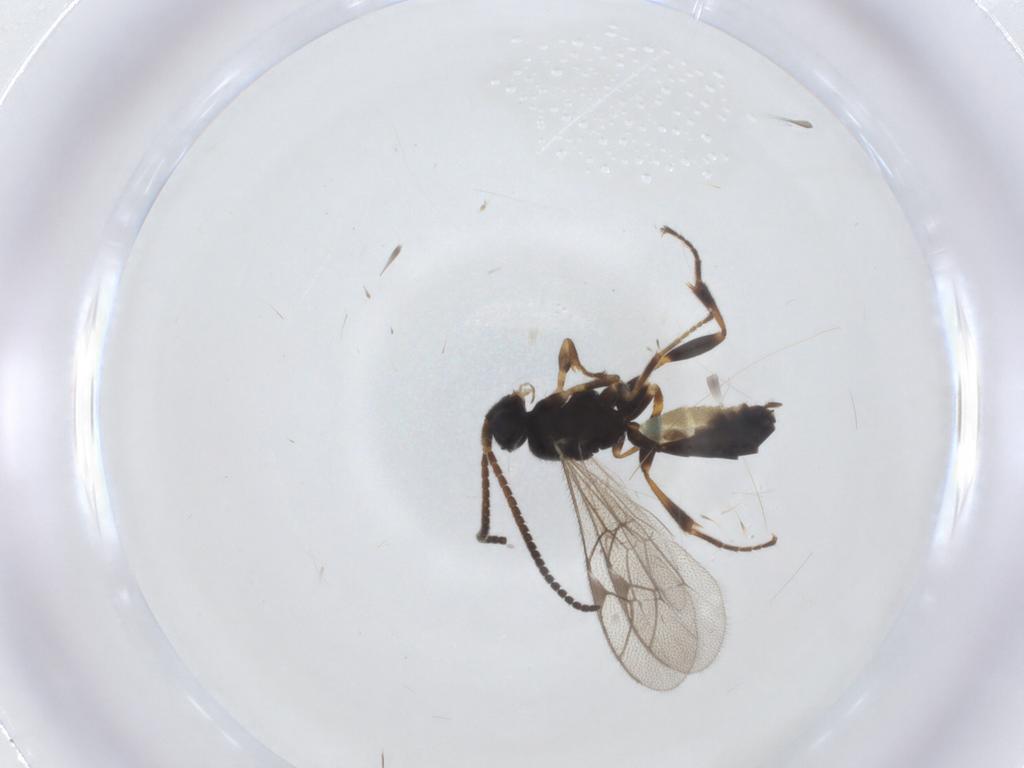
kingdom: Animalia
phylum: Arthropoda
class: Insecta
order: Hymenoptera
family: Ichneumonidae
